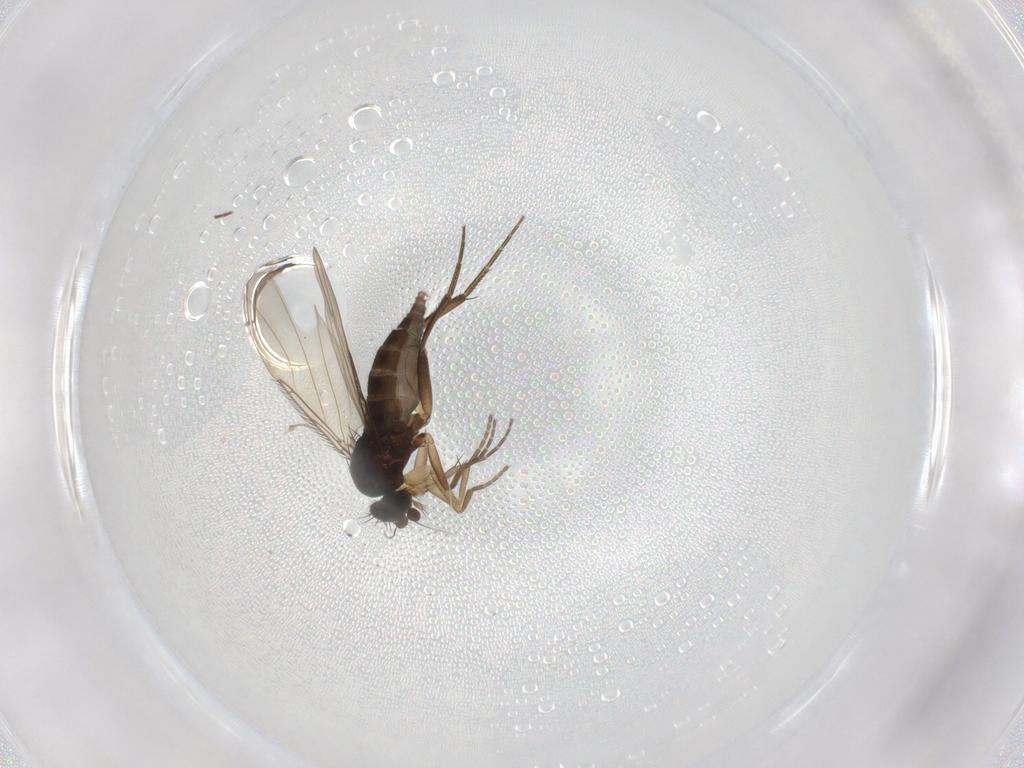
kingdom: Animalia
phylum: Arthropoda
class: Insecta
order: Diptera
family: Phoridae
